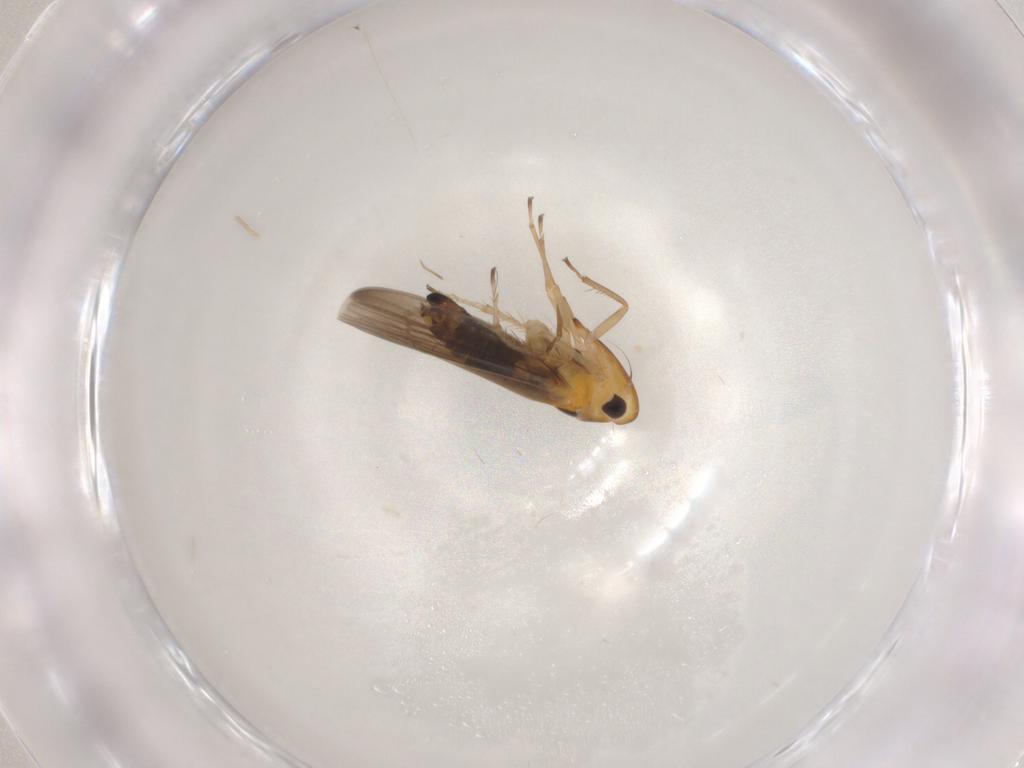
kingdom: Animalia
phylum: Arthropoda
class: Insecta
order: Hemiptera
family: Cicadellidae
